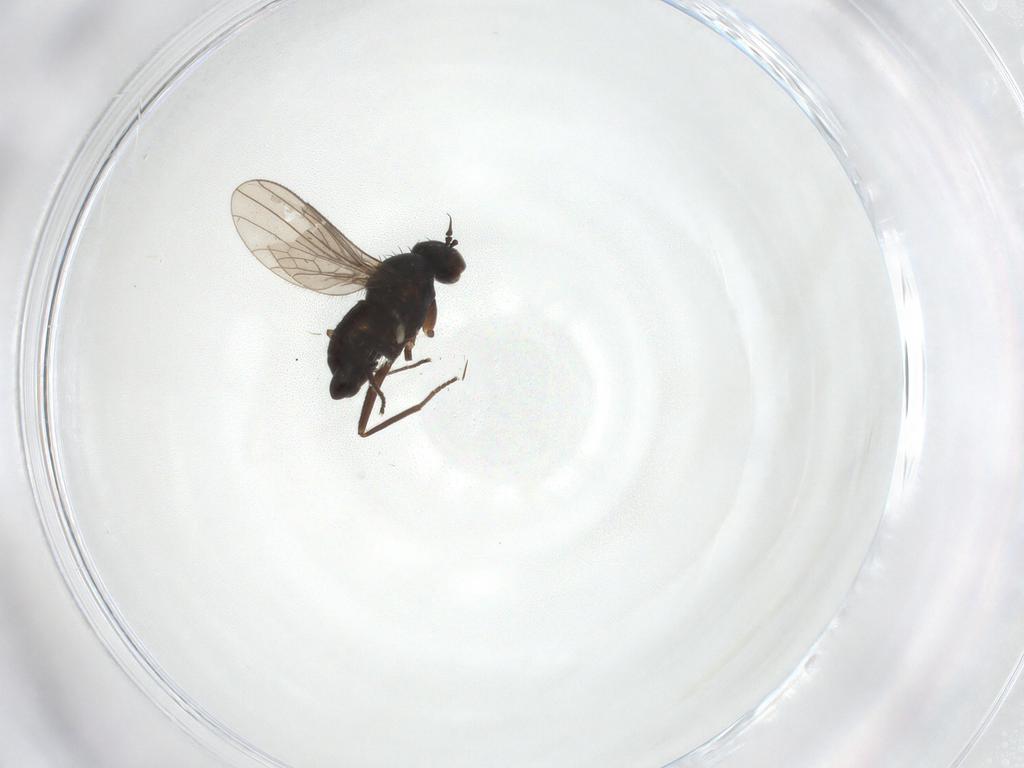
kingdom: Animalia
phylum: Arthropoda
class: Insecta
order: Diptera
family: Dolichopodidae
